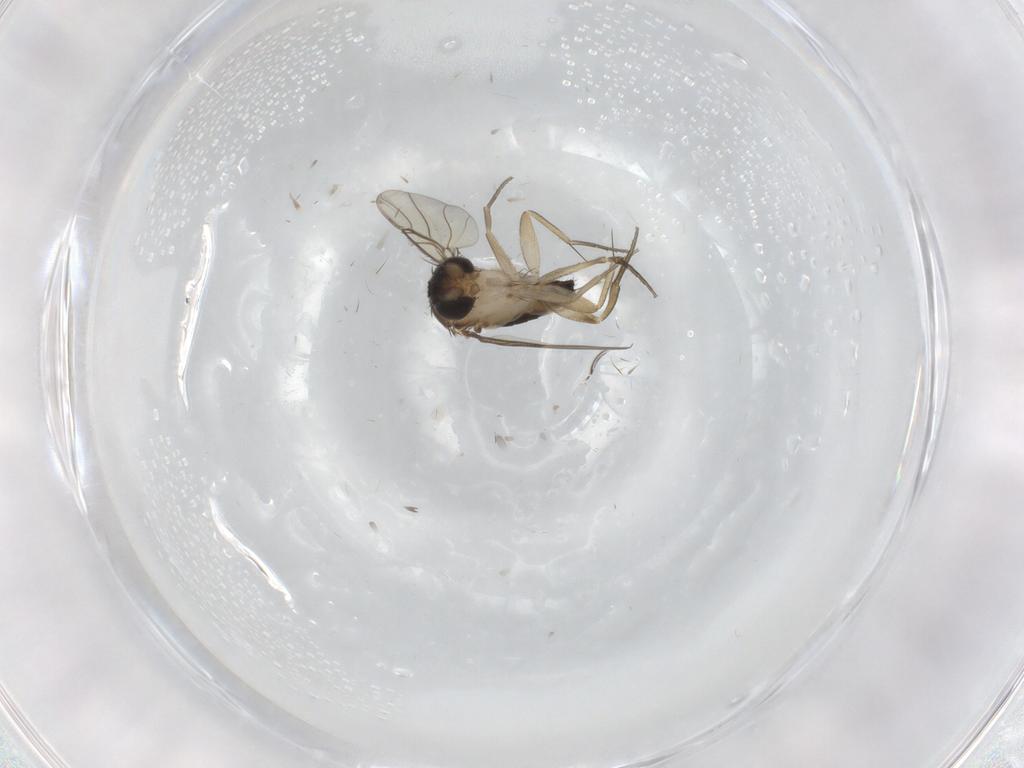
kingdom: Animalia
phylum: Arthropoda
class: Insecta
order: Diptera
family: Phoridae
